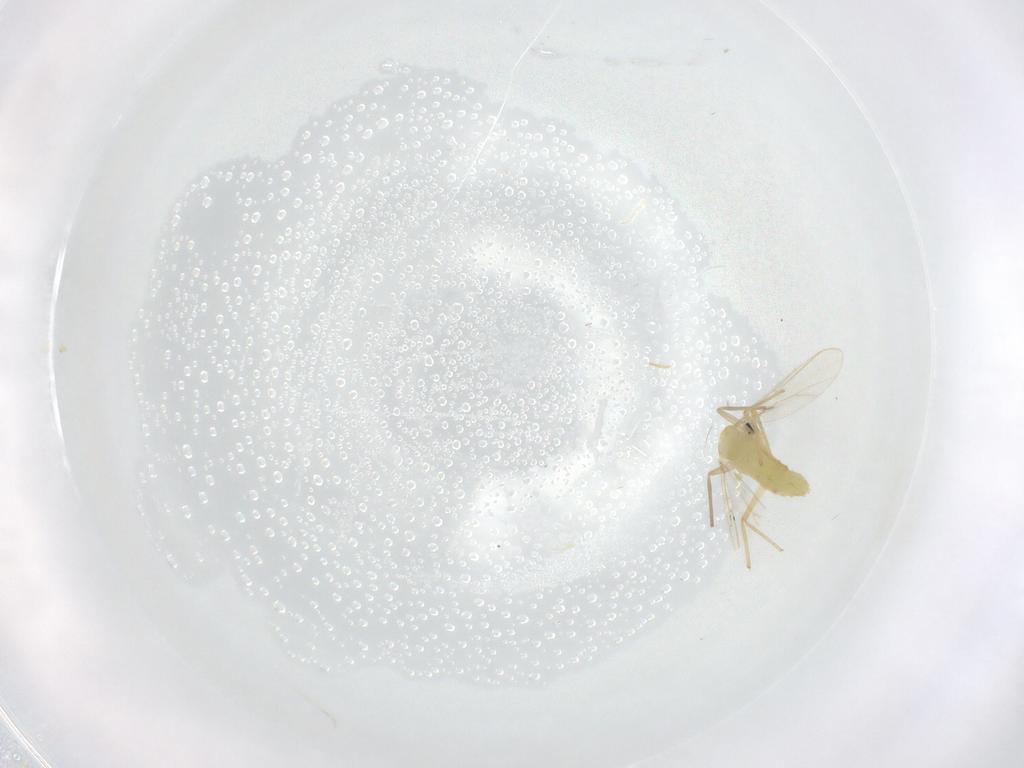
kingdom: Animalia
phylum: Arthropoda
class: Insecta
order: Diptera
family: Chironomidae
